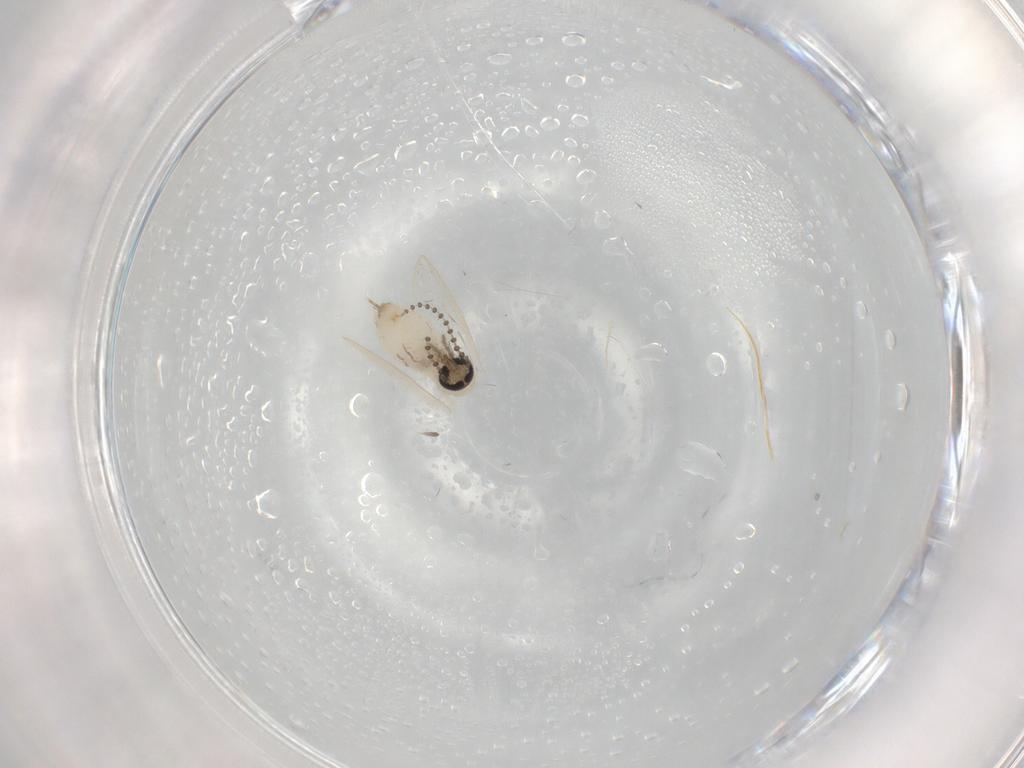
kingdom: Animalia
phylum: Arthropoda
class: Insecta
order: Diptera
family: Psychodidae
